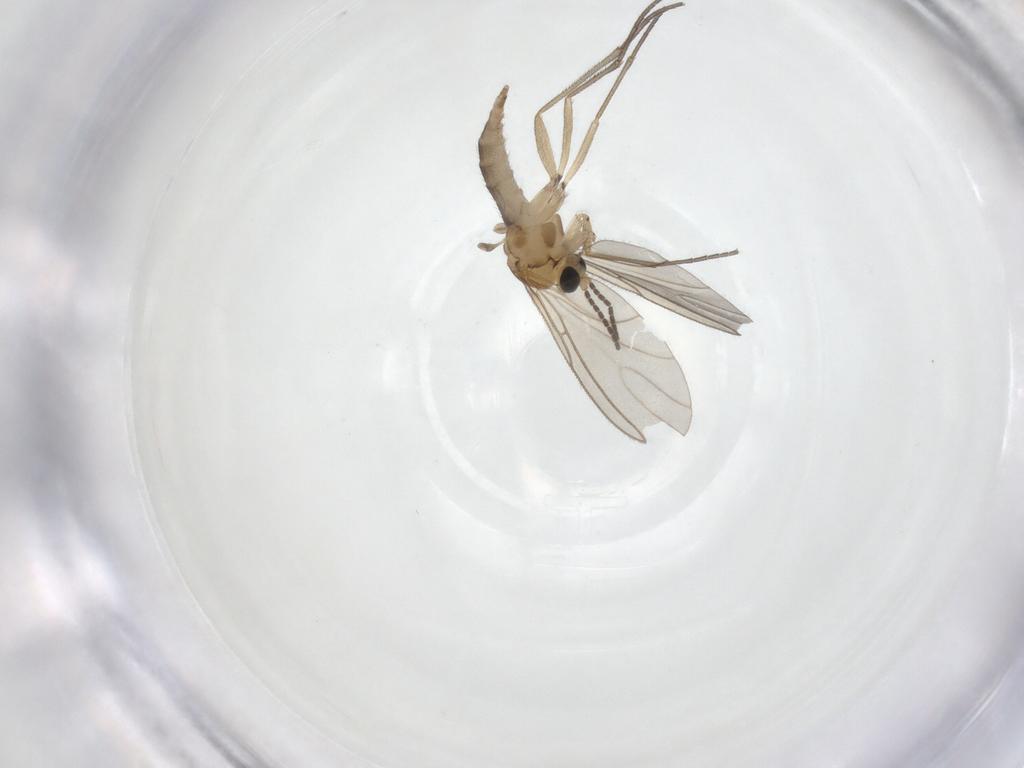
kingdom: Animalia
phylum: Arthropoda
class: Insecta
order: Diptera
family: Sciaridae
